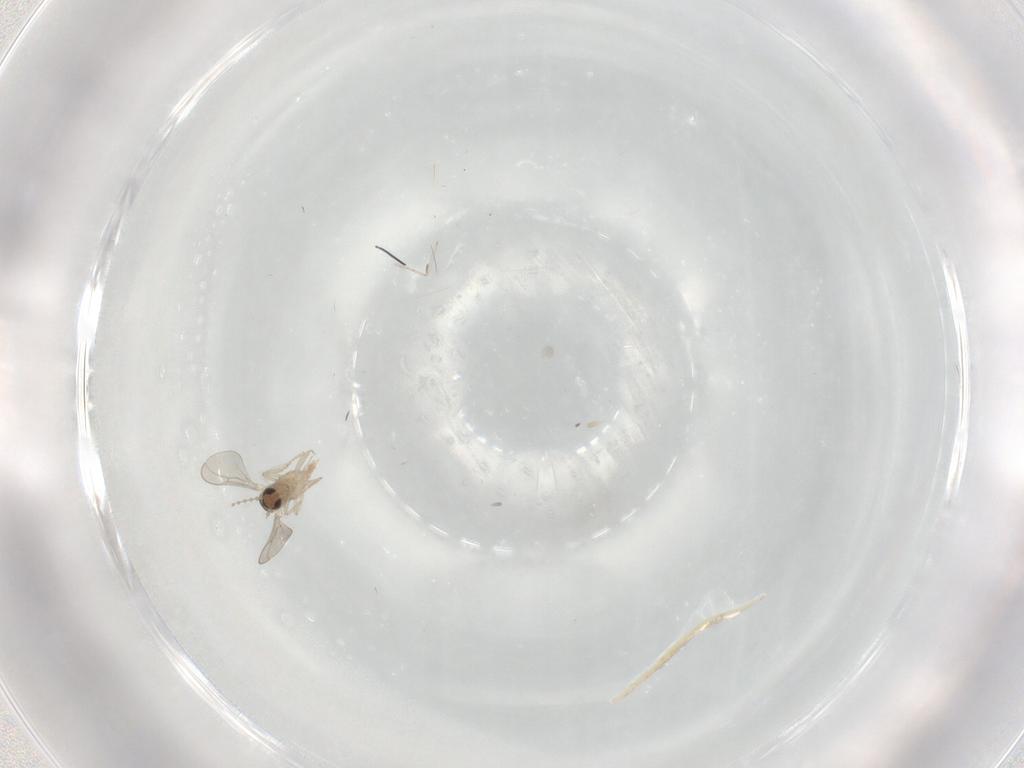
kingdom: Animalia
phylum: Arthropoda
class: Insecta
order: Diptera
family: Cecidomyiidae
